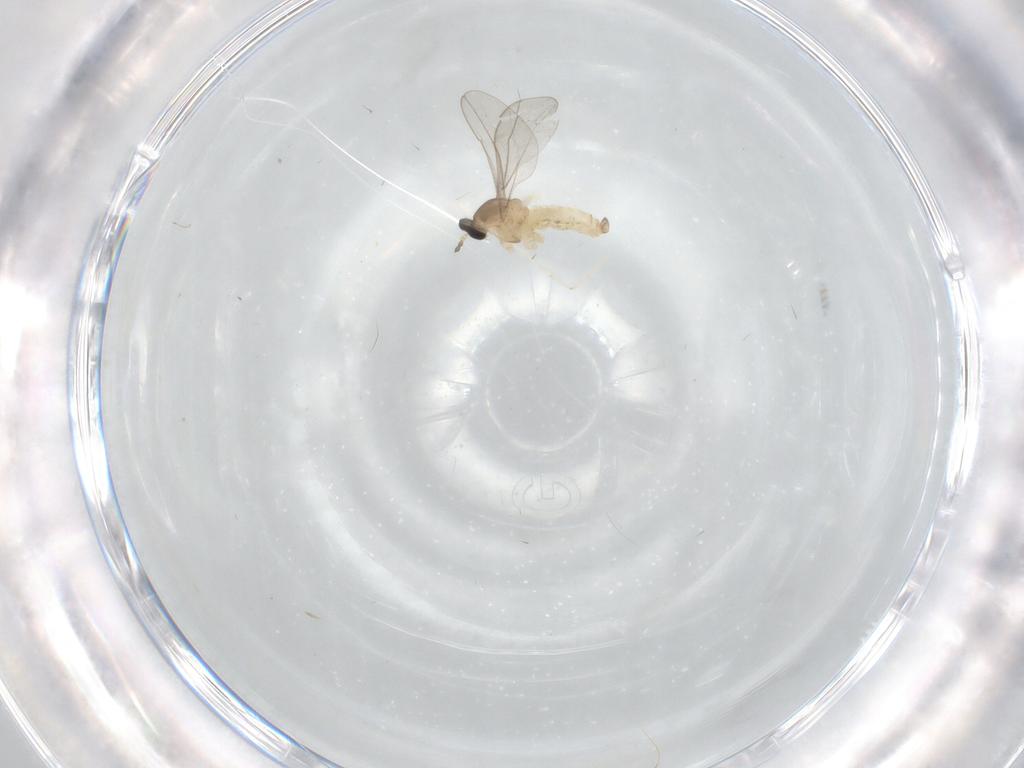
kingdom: Animalia
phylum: Arthropoda
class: Insecta
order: Diptera
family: Cecidomyiidae
